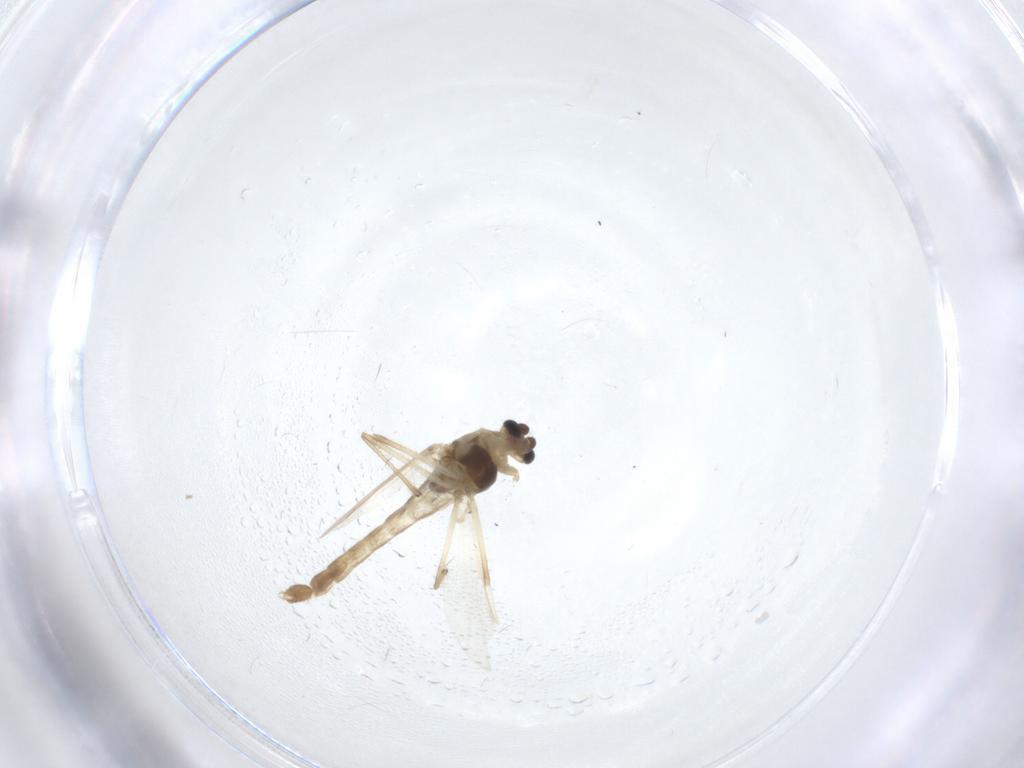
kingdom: Animalia
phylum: Arthropoda
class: Insecta
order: Diptera
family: Chironomidae
